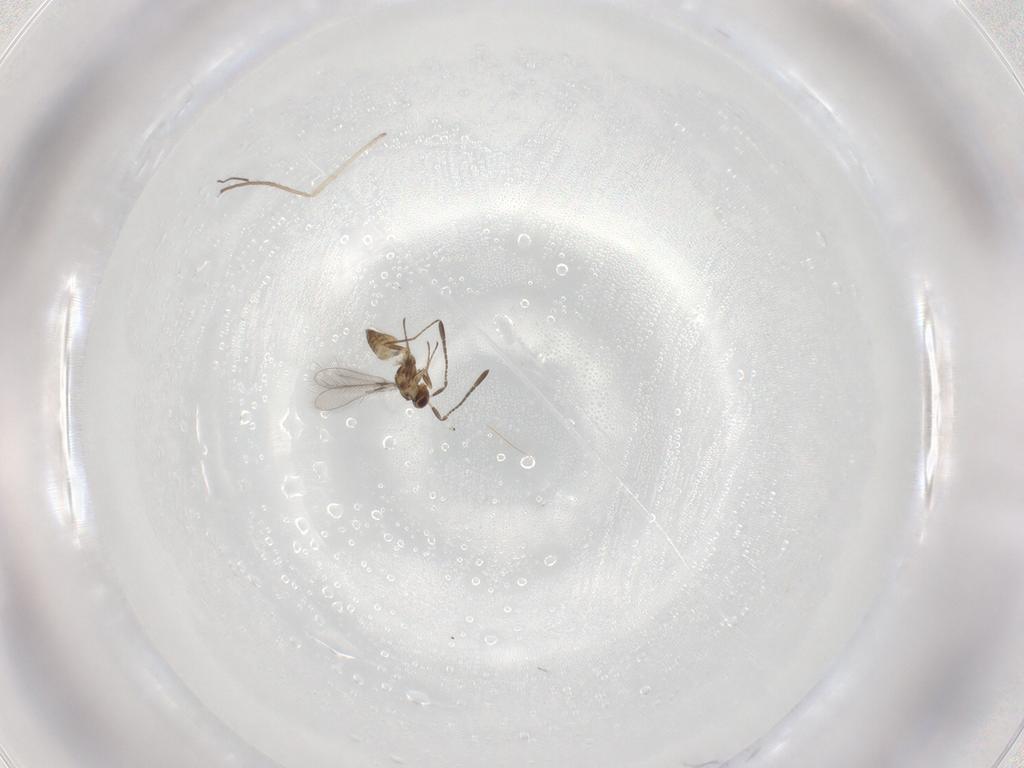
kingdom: Animalia
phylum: Arthropoda
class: Insecta
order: Hymenoptera
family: Mymaridae
